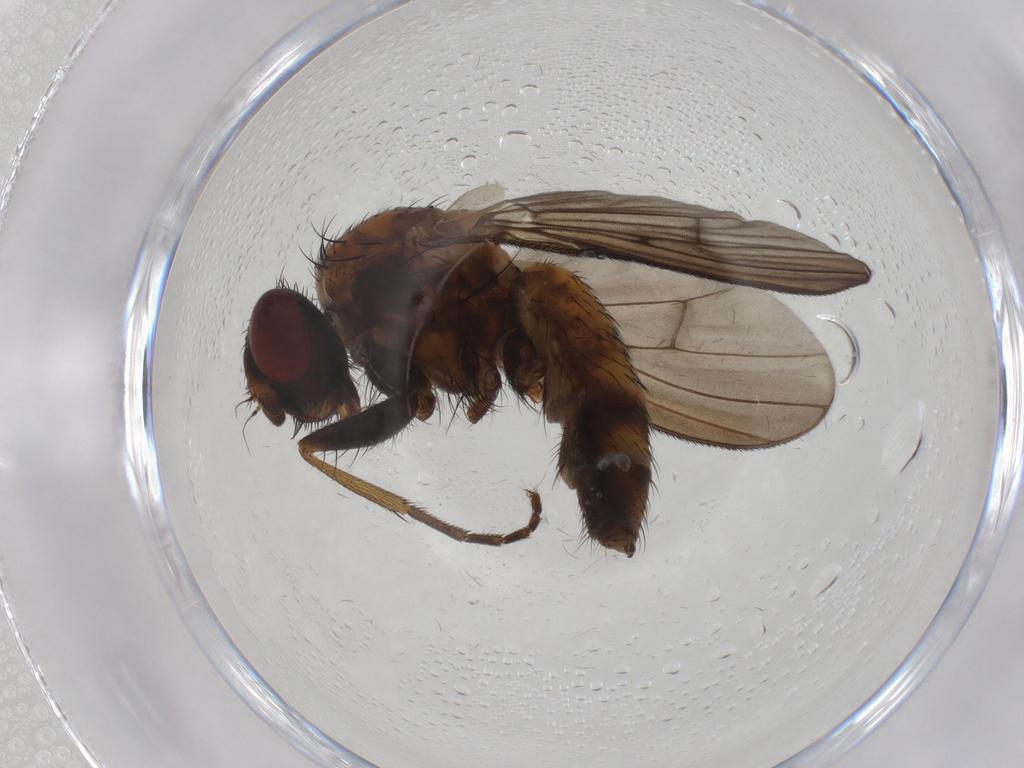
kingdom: Animalia
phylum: Arthropoda
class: Insecta
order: Diptera
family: Muscidae
